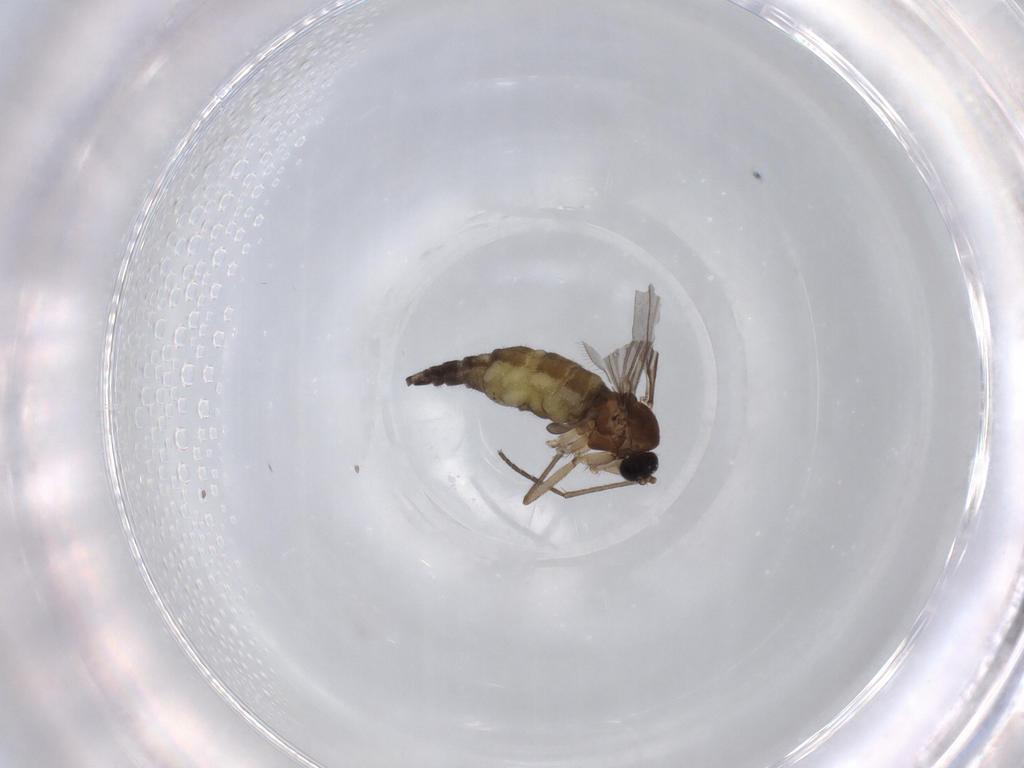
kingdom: Animalia
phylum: Arthropoda
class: Insecta
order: Diptera
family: Sciaridae
